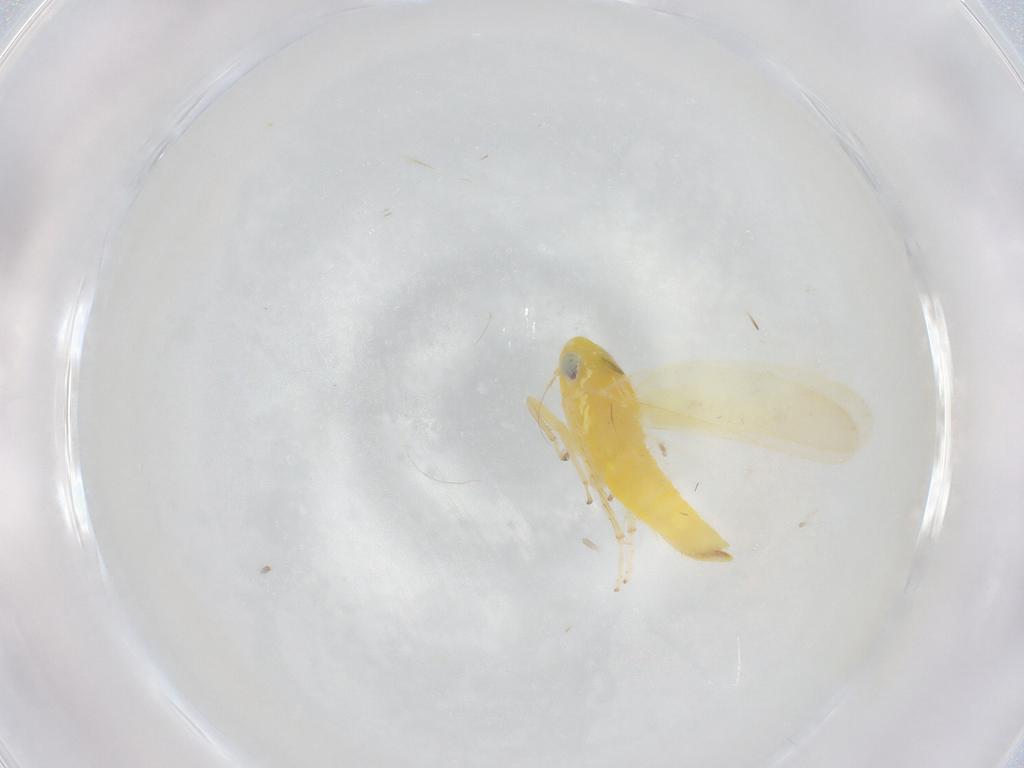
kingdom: Animalia
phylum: Arthropoda
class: Insecta
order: Hemiptera
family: Cicadellidae
